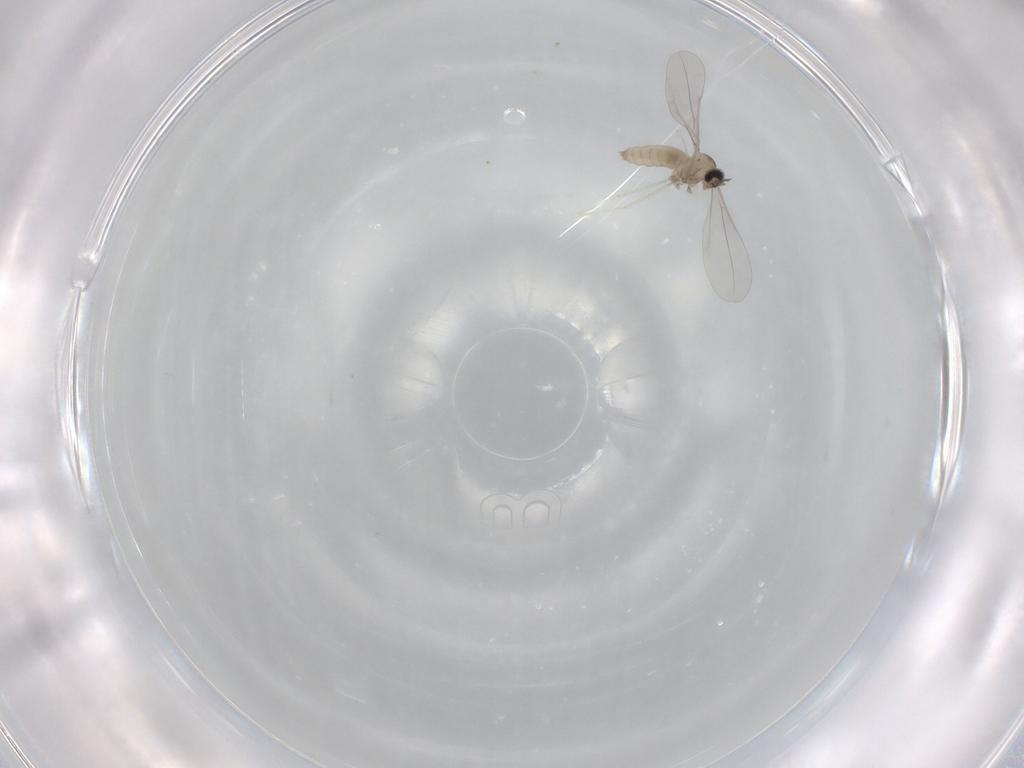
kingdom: Animalia
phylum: Arthropoda
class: Insecta
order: Diptera
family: Cecidomyiidae
